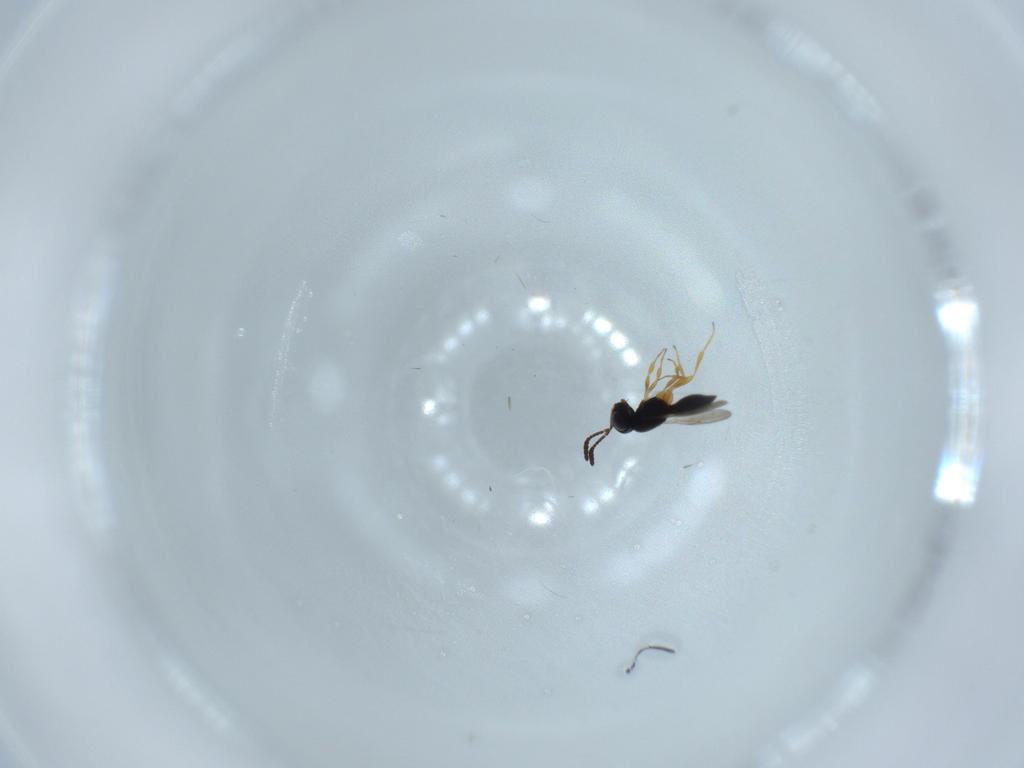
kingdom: Animalia
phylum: Arthropoda
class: Insecta
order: Hymenoptera
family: Scelionidae
